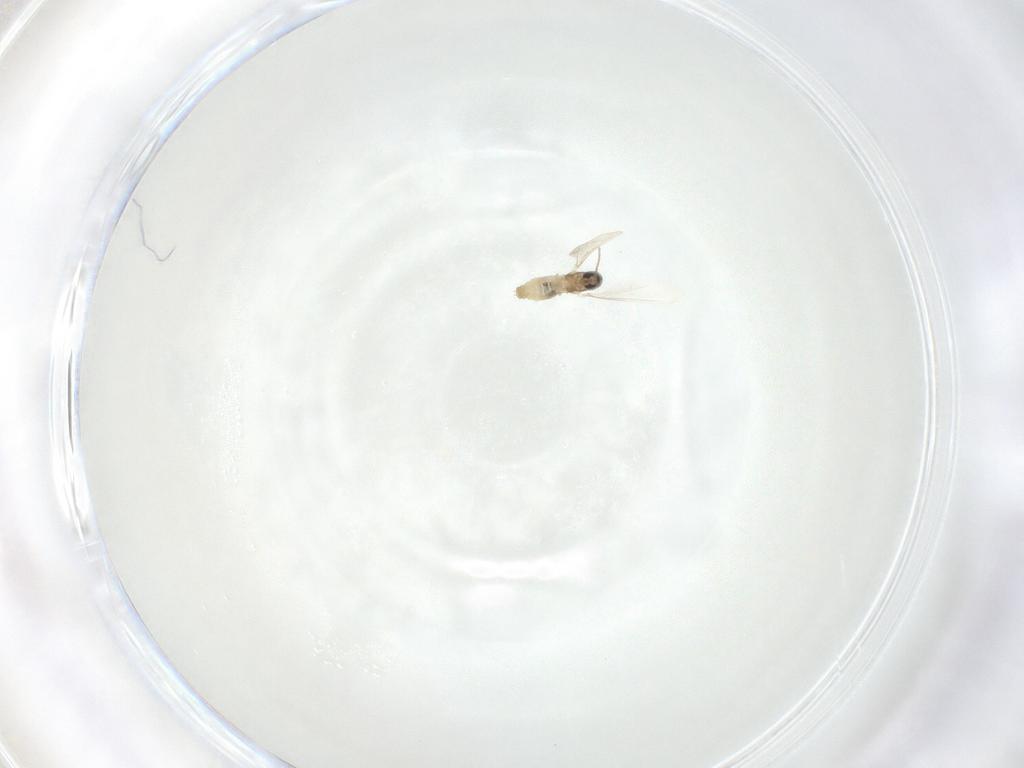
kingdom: Animalia
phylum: Arthropoda
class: Insecta
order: Diptera
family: Cecidomyiidae
